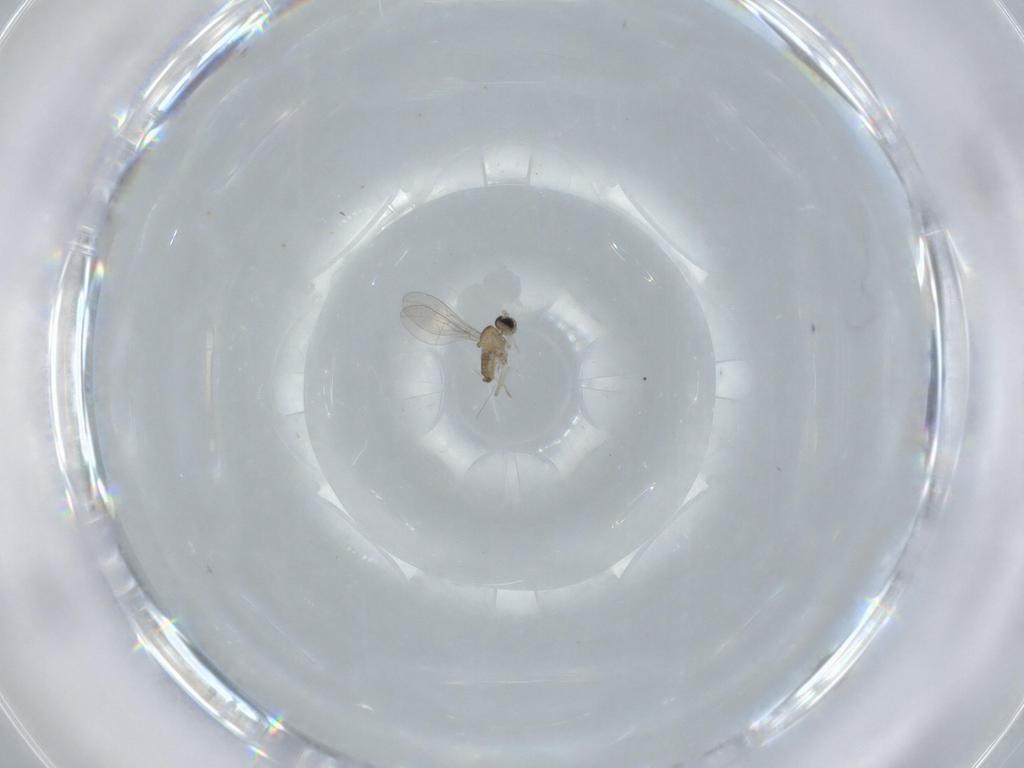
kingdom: Animalia
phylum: Arthropoda
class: Insecta
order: Diptera
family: Cecidomyiidae
